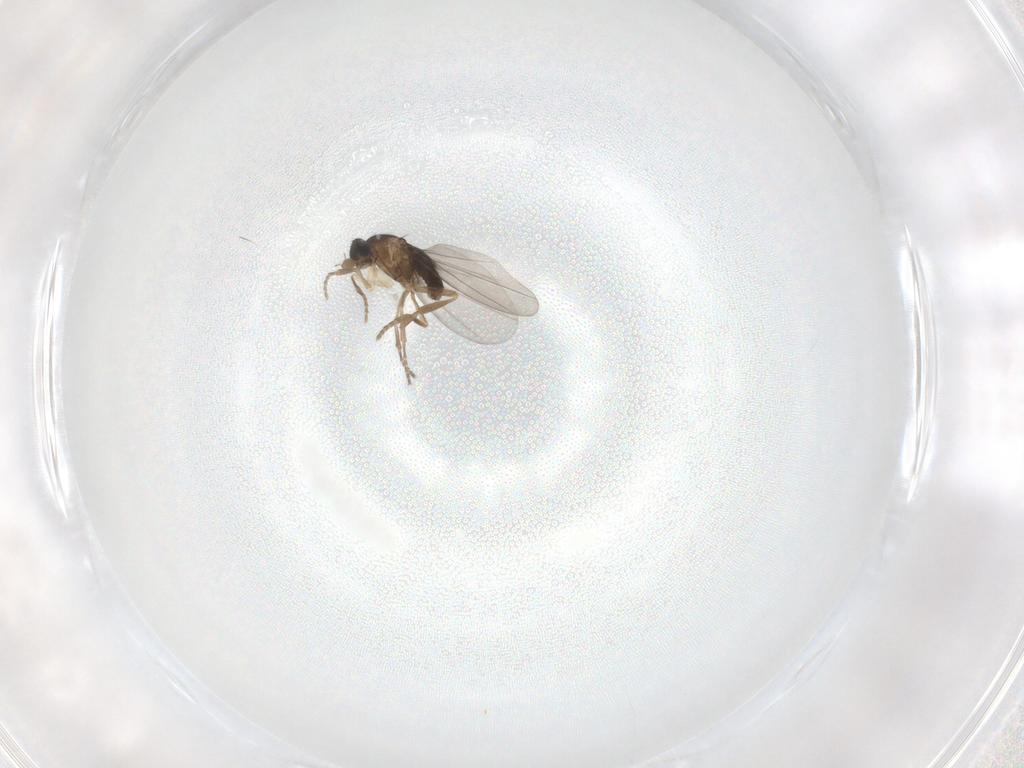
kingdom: Animalia
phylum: Arthropoda
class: Insecta
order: Diptera
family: Phoridae
